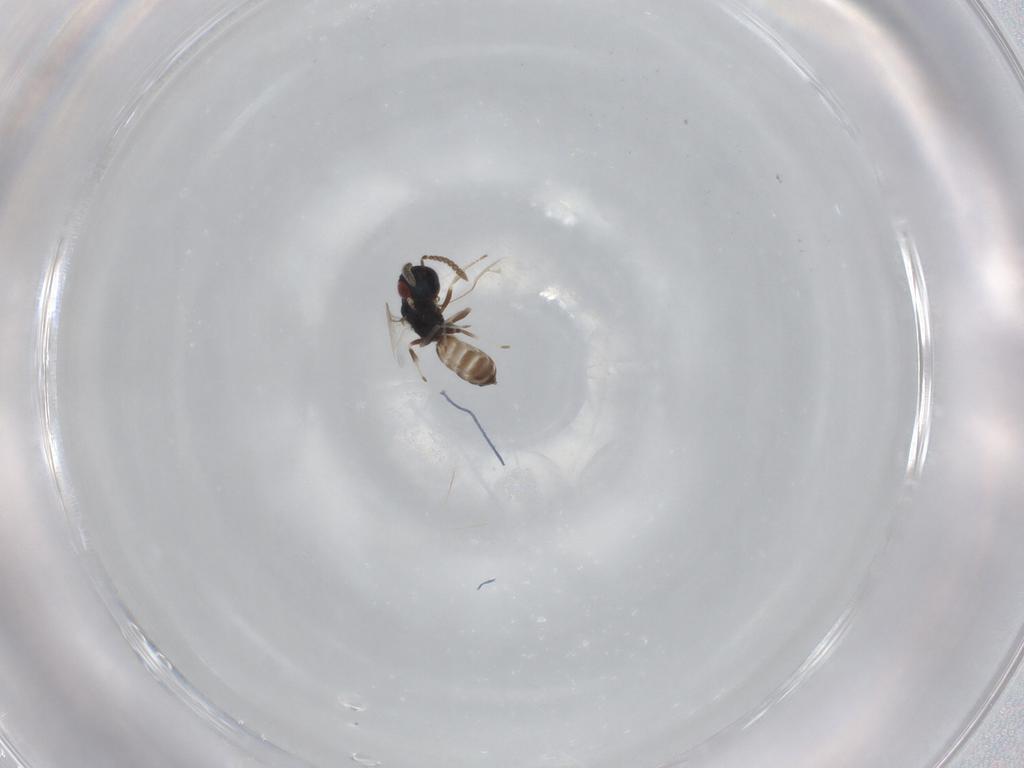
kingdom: Animalia
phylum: Arthropoda
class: Insecta
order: Hymenoptera
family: Pteromalidae
